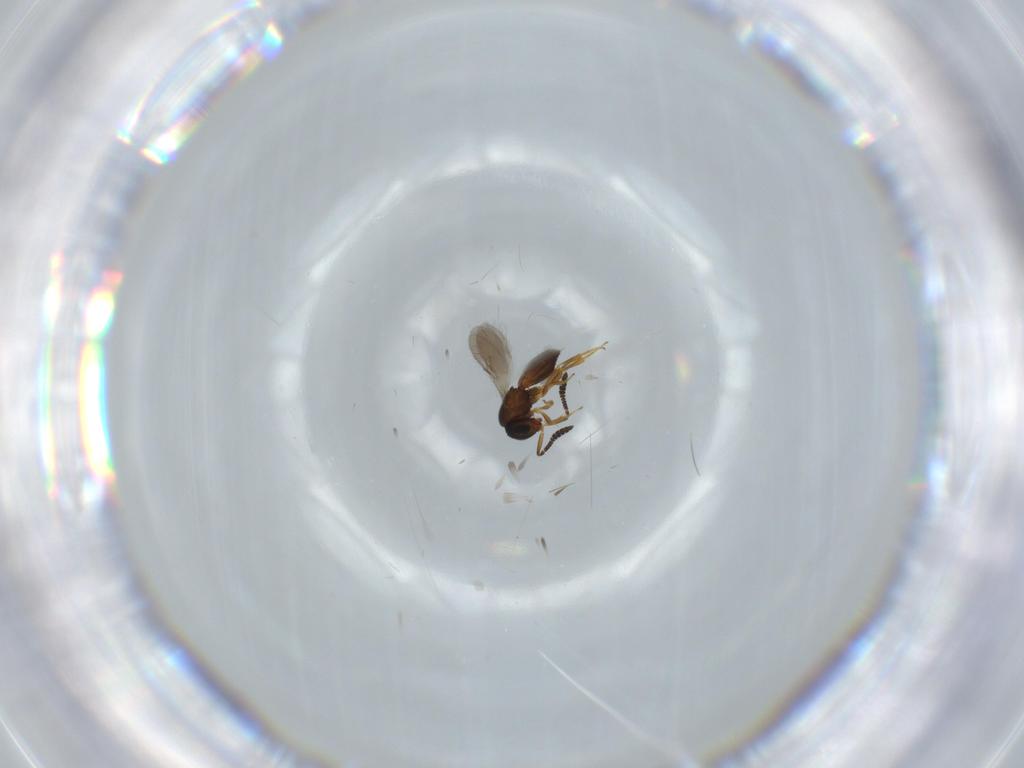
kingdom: Animalia
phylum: Arthropoda
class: Insecta
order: Hymenoptera
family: Scelionidae
